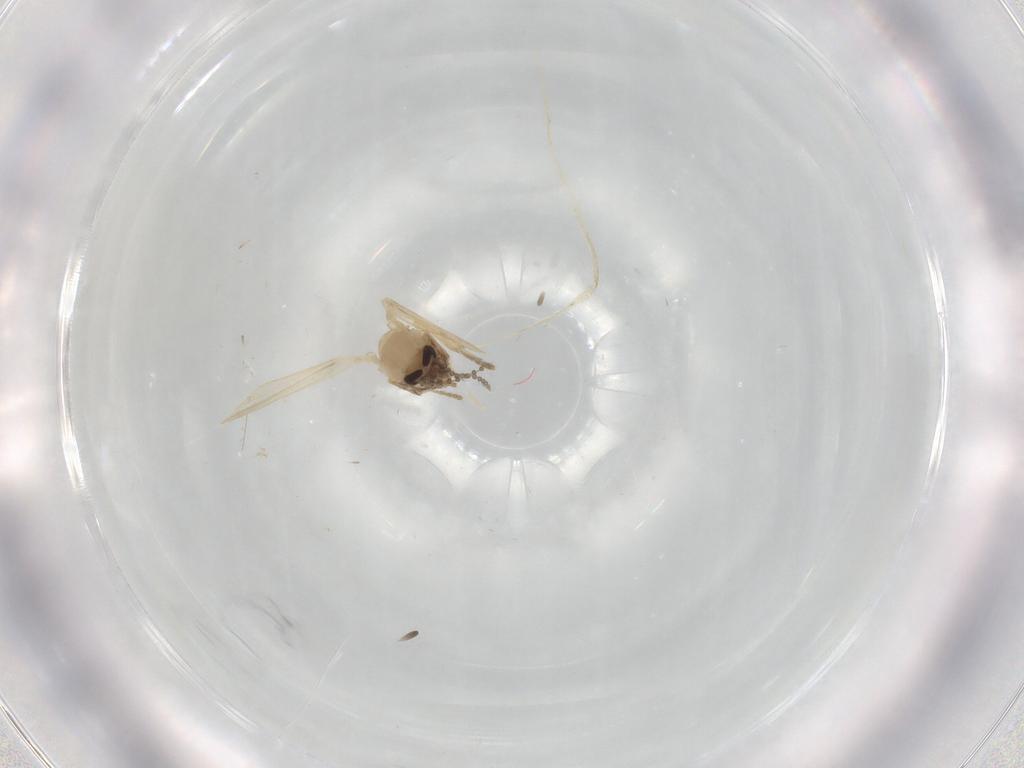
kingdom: Animalia
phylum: Arthropoda
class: Insecta
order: Diptera
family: Psychodidae
